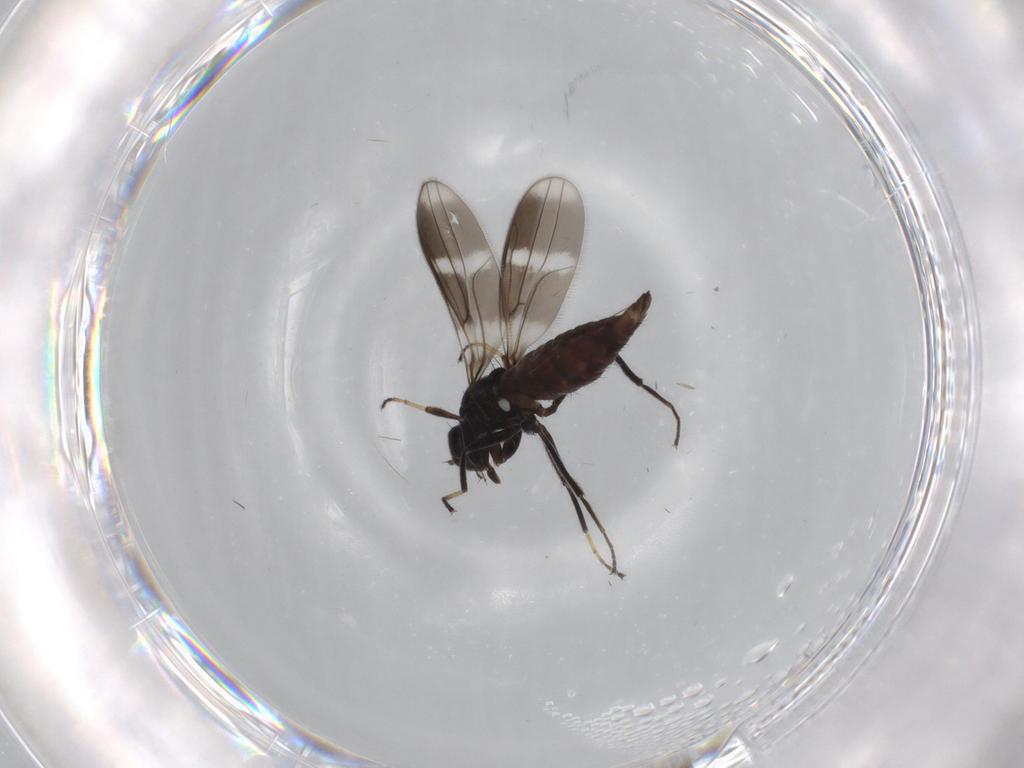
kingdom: Animalia
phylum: Arthropoda
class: Insecta
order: Diptera
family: Hybotidae
